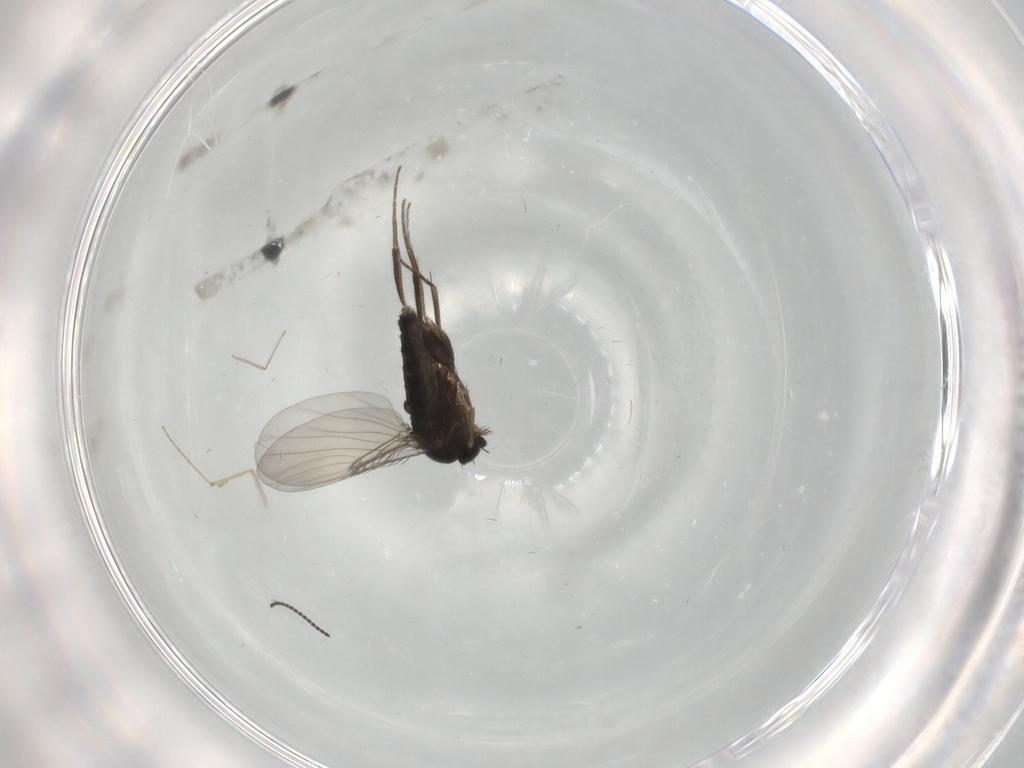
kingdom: Animalia
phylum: Arthropoda
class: Insecta
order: Diptera
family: Phoridae
